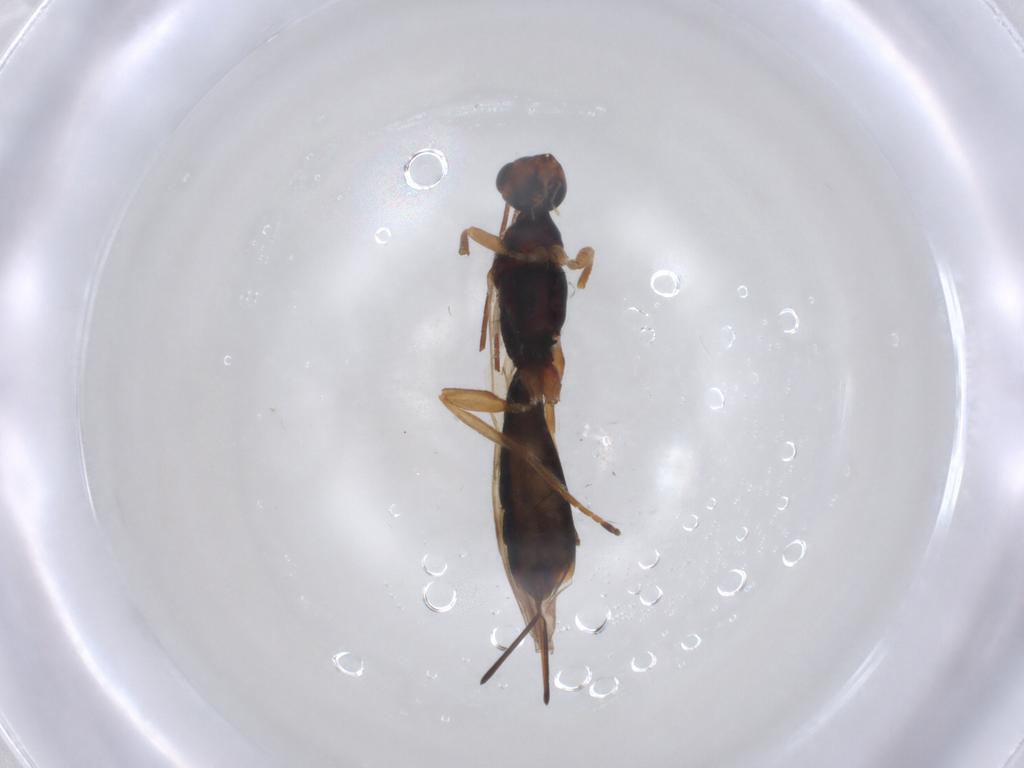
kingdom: Animalia
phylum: Arthropoda
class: Insecta
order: Hymenoptera
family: Braconidae
